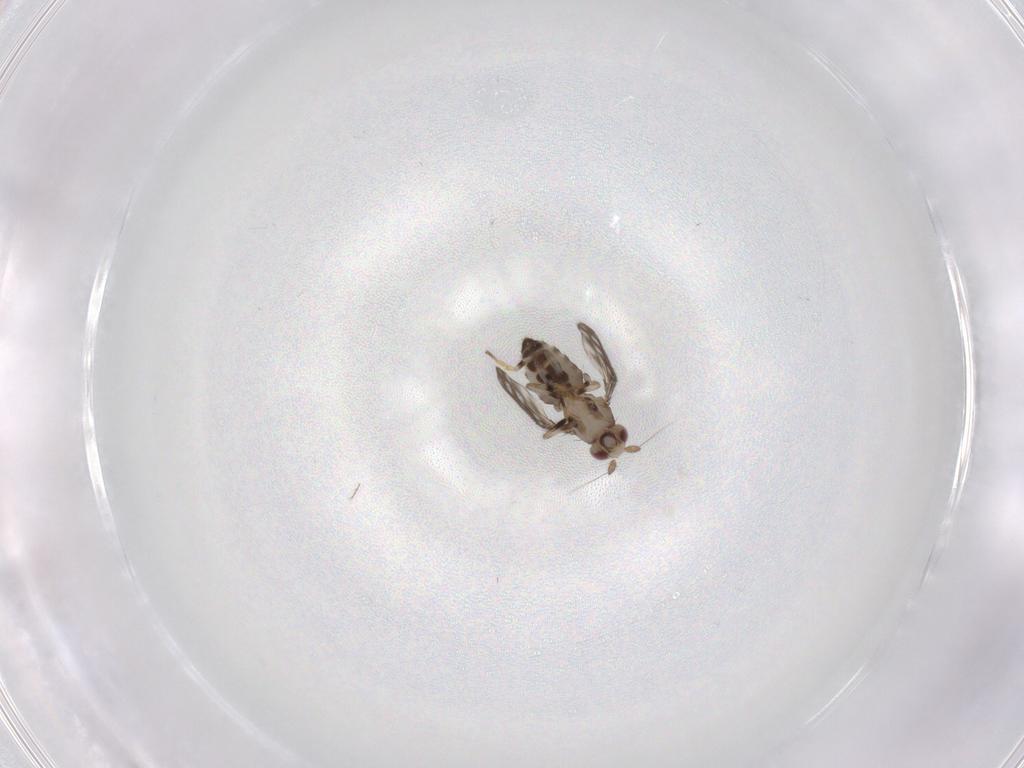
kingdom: Animalia
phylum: Arthropoda
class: Insecta
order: Diptera
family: Sphaeroceridae
